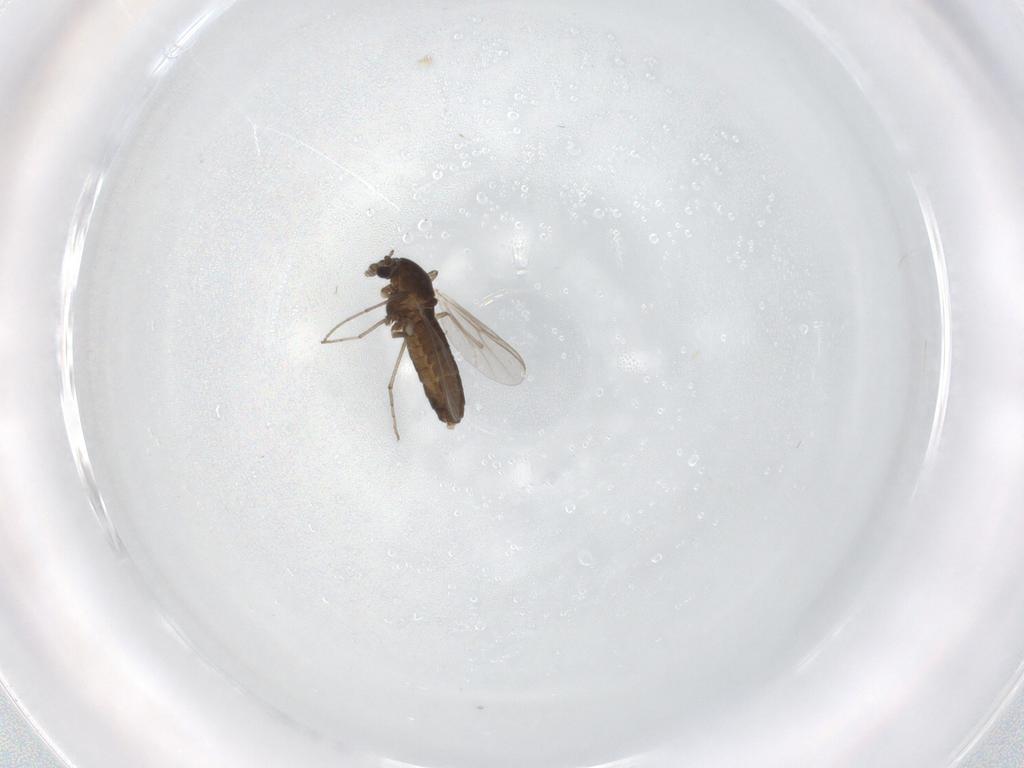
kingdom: Animalia
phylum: Arthropoda
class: Insecta
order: Diptera
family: Chironomidae
